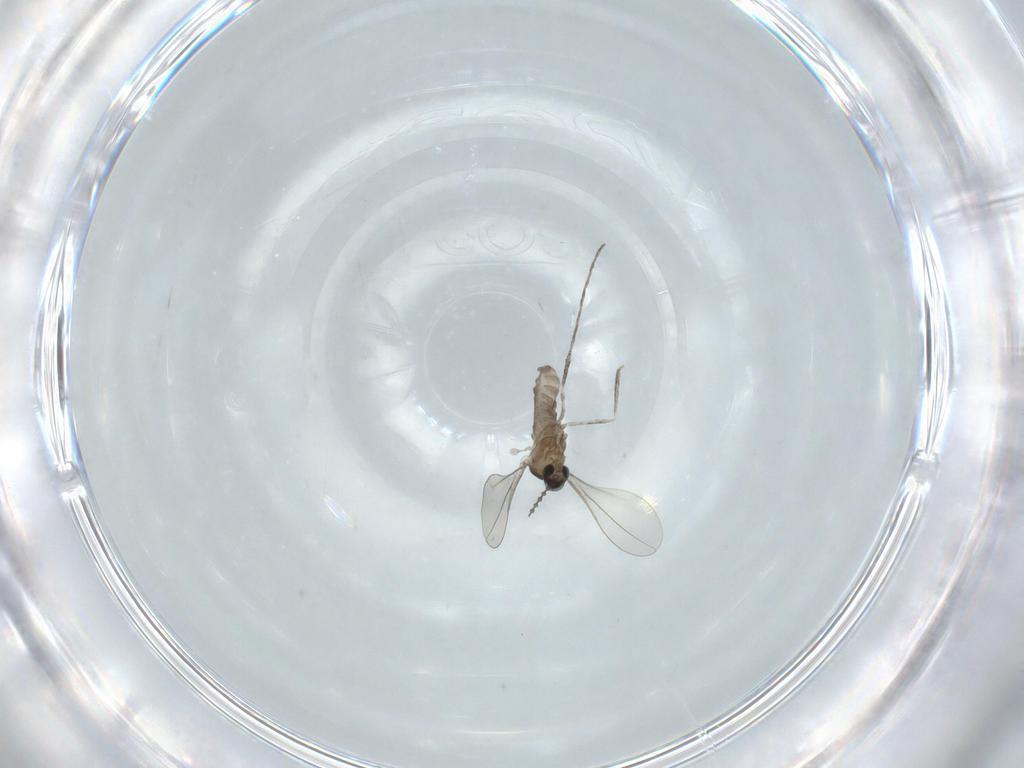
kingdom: Animalia
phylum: Arthropoda
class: Insecta
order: Diptera
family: Cecidomyiidae
